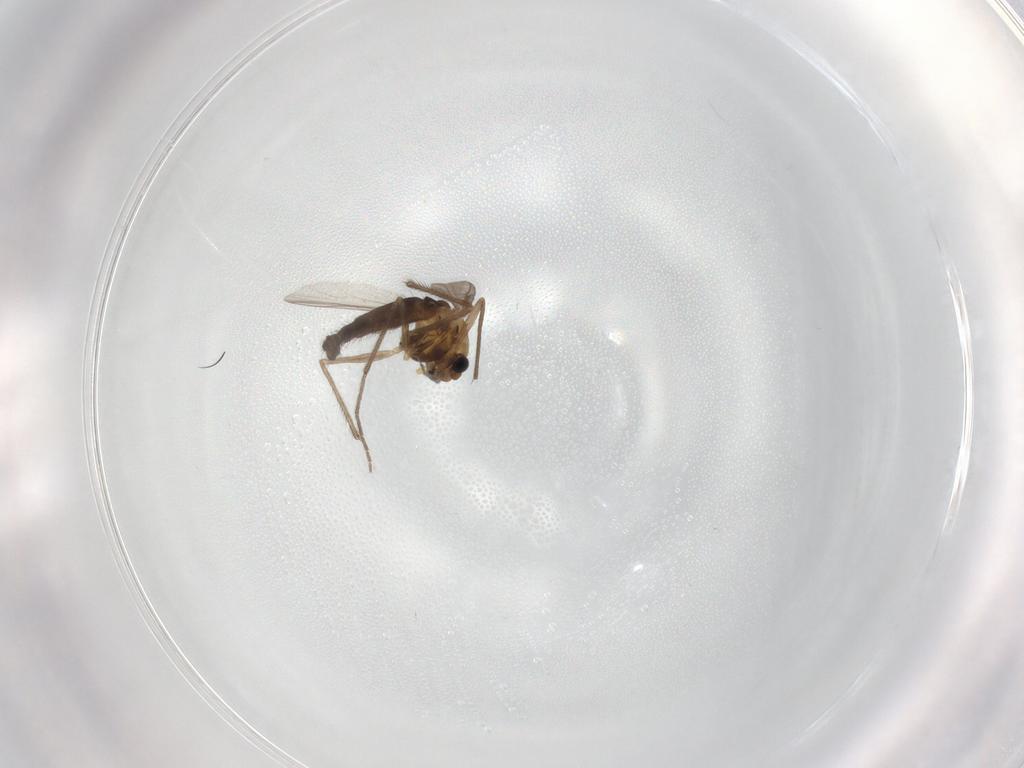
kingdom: Animalia
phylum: Arthropoda
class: Insecta
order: Diptera
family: Chironomidae
